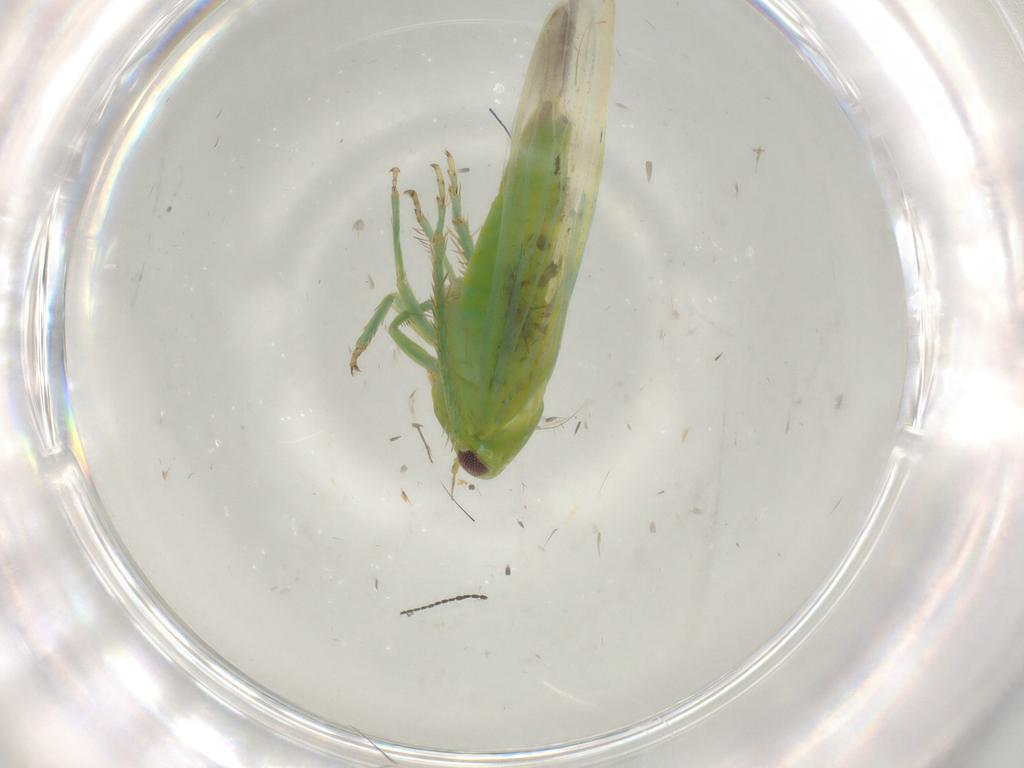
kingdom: Animalia
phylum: Arthropoda
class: Insecta
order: Hemiptera
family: Cicadellidae
